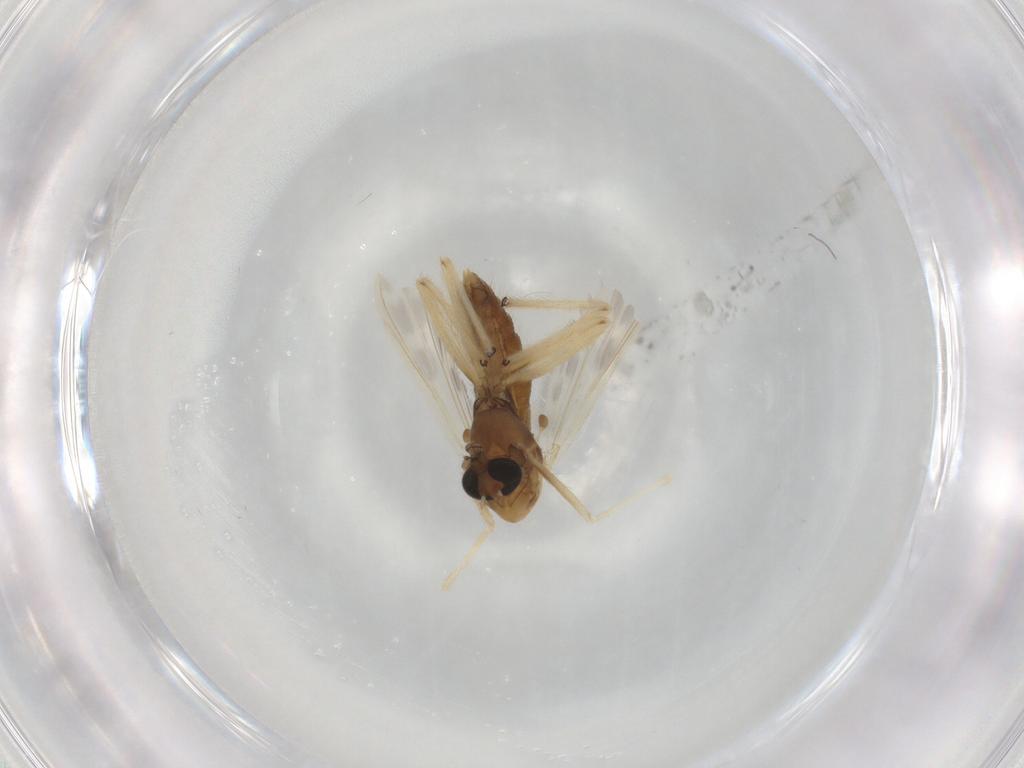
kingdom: Animalia
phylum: Arthropoda
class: Insecta
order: Diptera
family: Chironomidae
